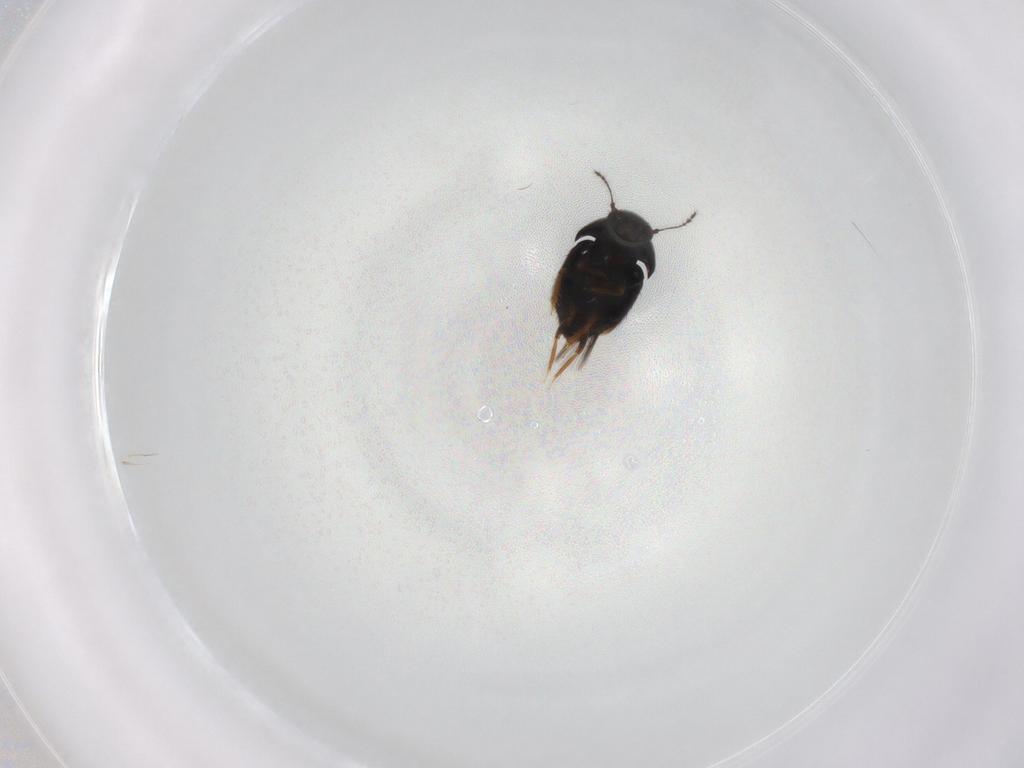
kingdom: Animalia
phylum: Arthropoda
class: Insecta
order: Coleoptera
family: Ptiliidae
